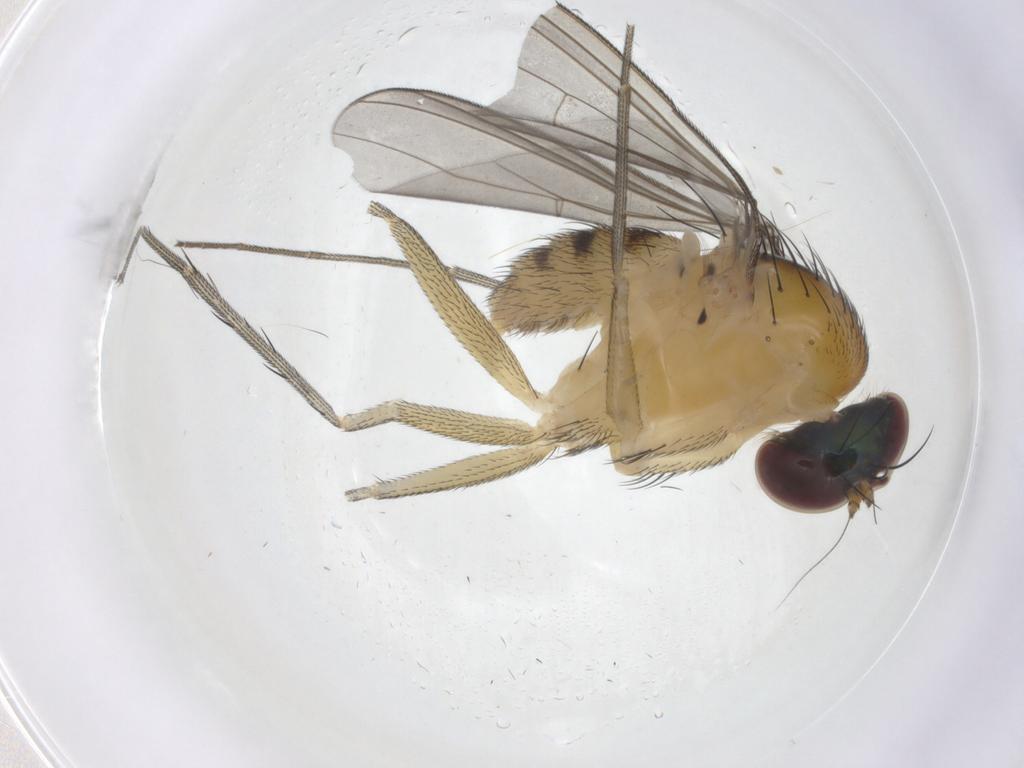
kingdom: Animalia
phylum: Arthropoda
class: Insecta
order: Diptera
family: Dolichopodidae
